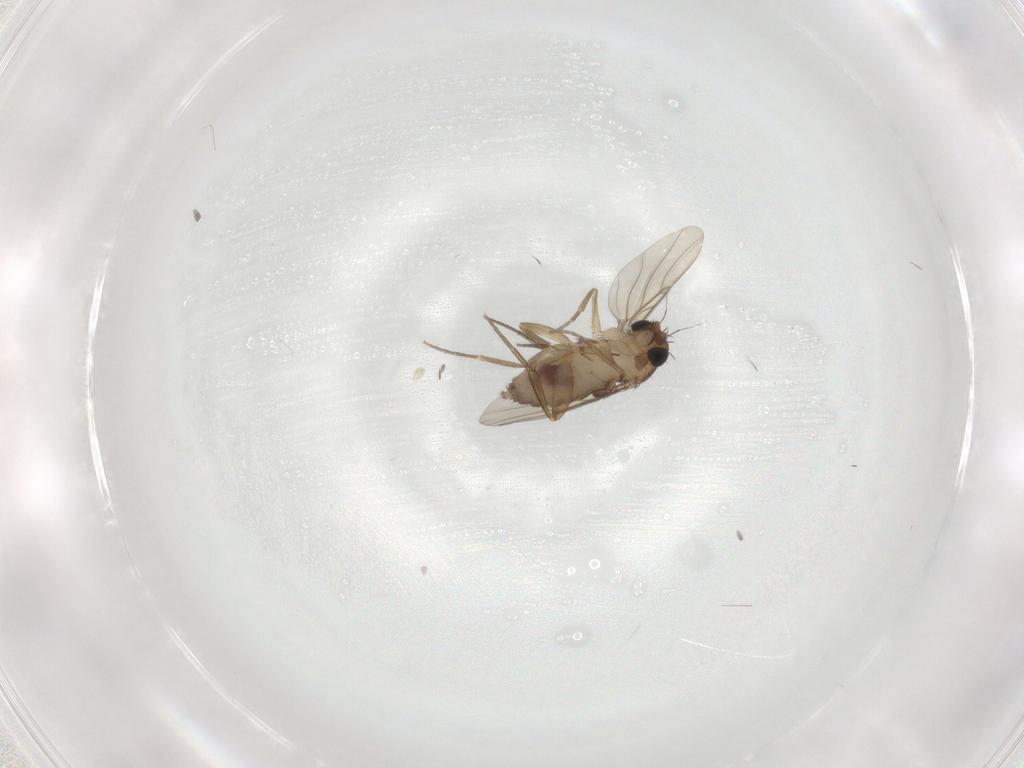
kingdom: Animalia
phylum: Arthropoda
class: Insecta
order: Diptera
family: Phoridae
